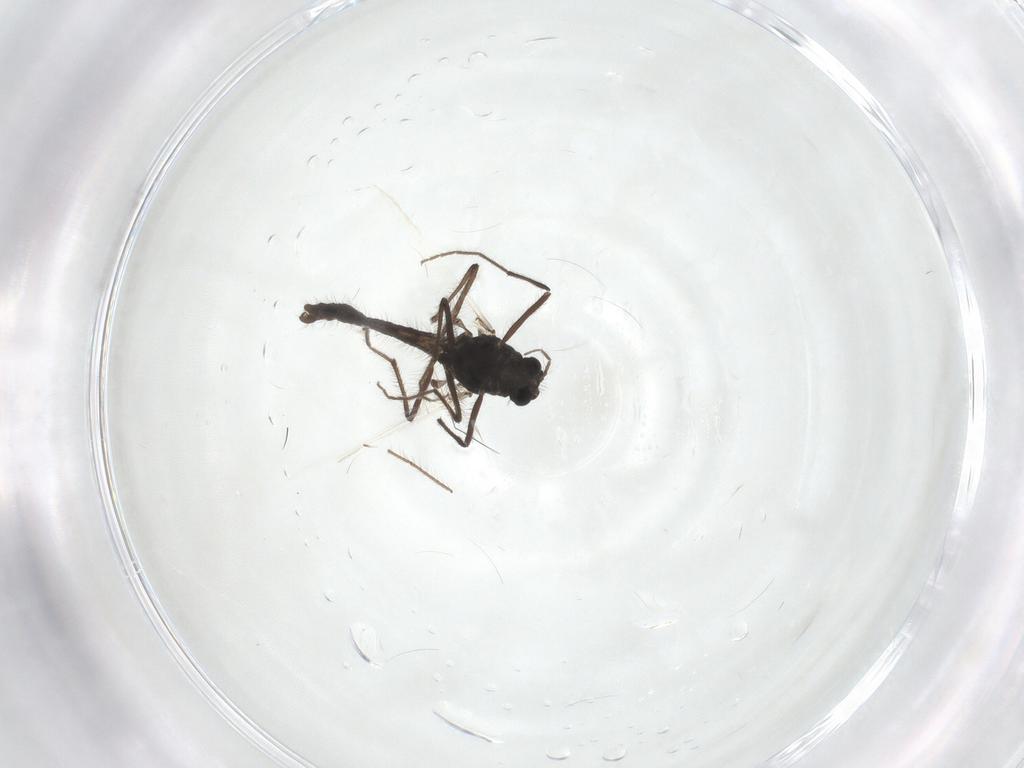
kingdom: Animalia
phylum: Arthropoda
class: Insecta
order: Diptera
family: Chironomidae
